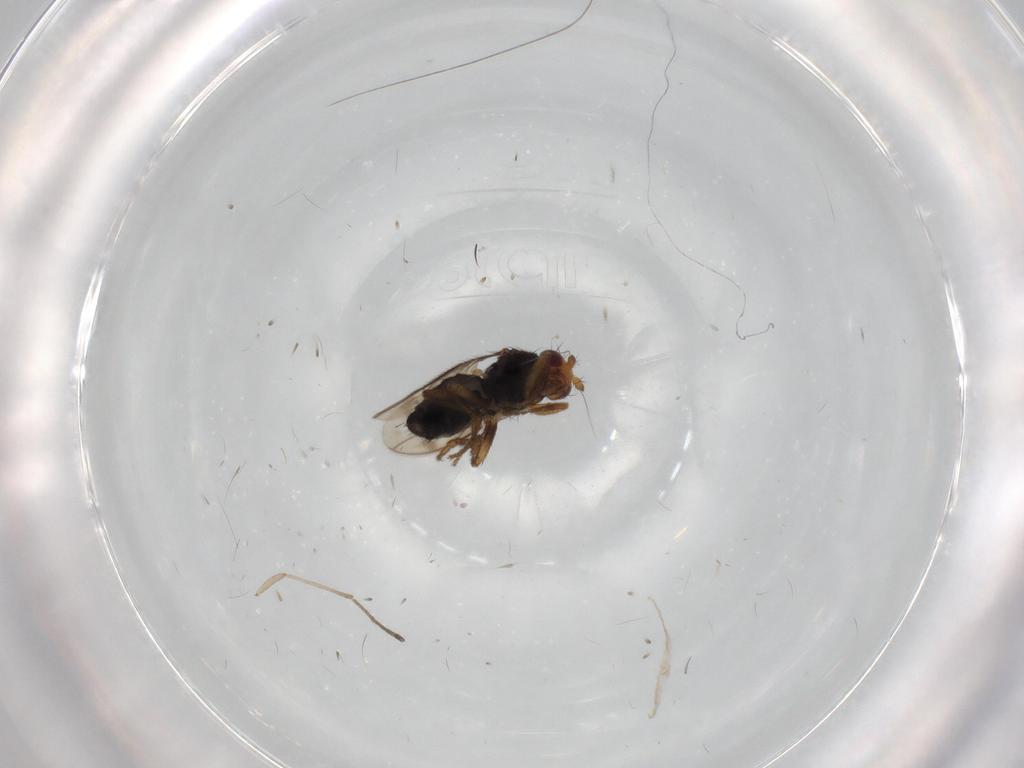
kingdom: Animalia
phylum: Arthropoda
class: Insecta
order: Diptera
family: Sphaeroceridae
